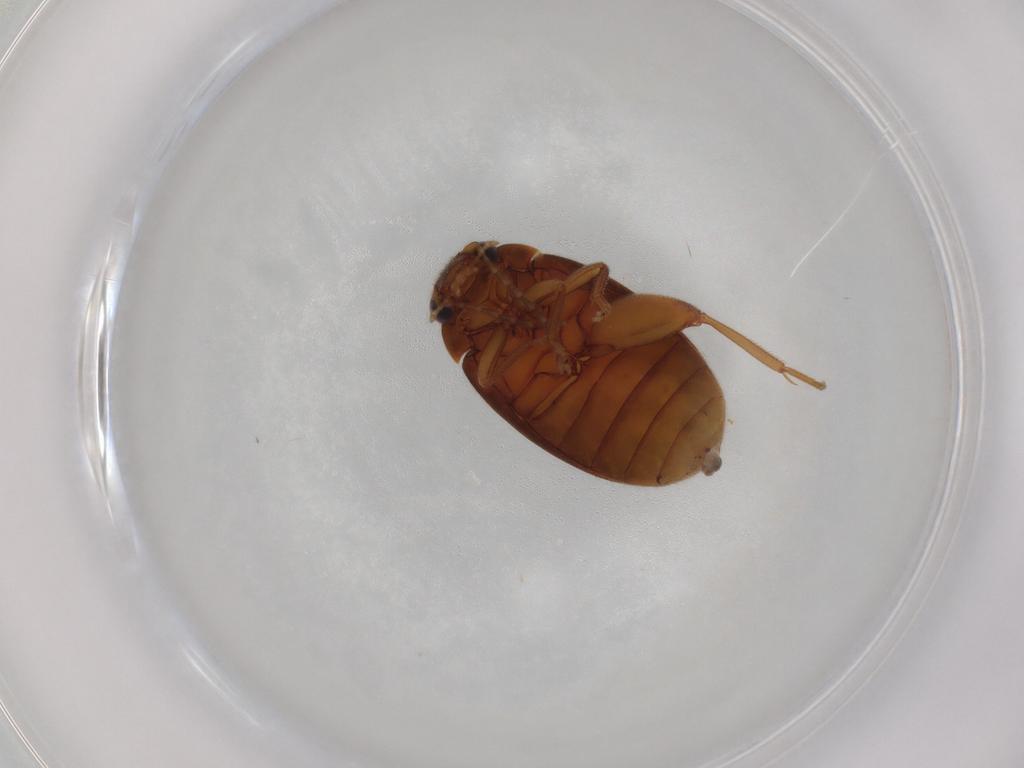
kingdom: Animalia
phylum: Arthropoda
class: Insecta
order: Coleoptera
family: Scirtidae
